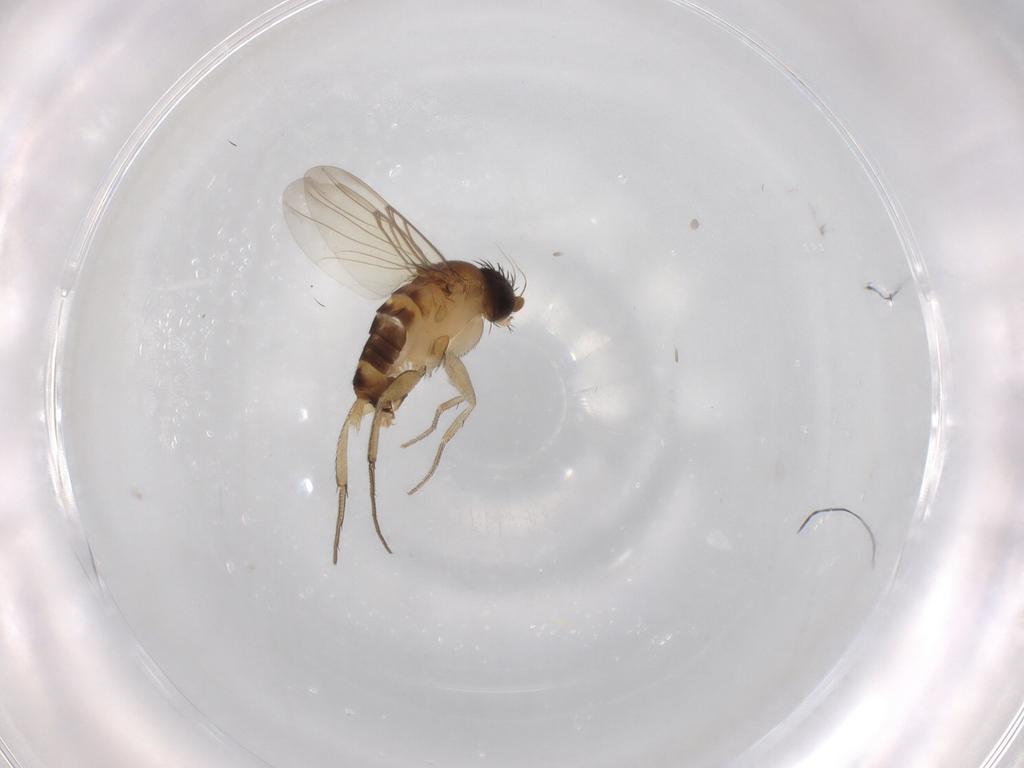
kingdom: Animalia
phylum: Arthropoda
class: Insecta
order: Diptera
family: Phoridae
